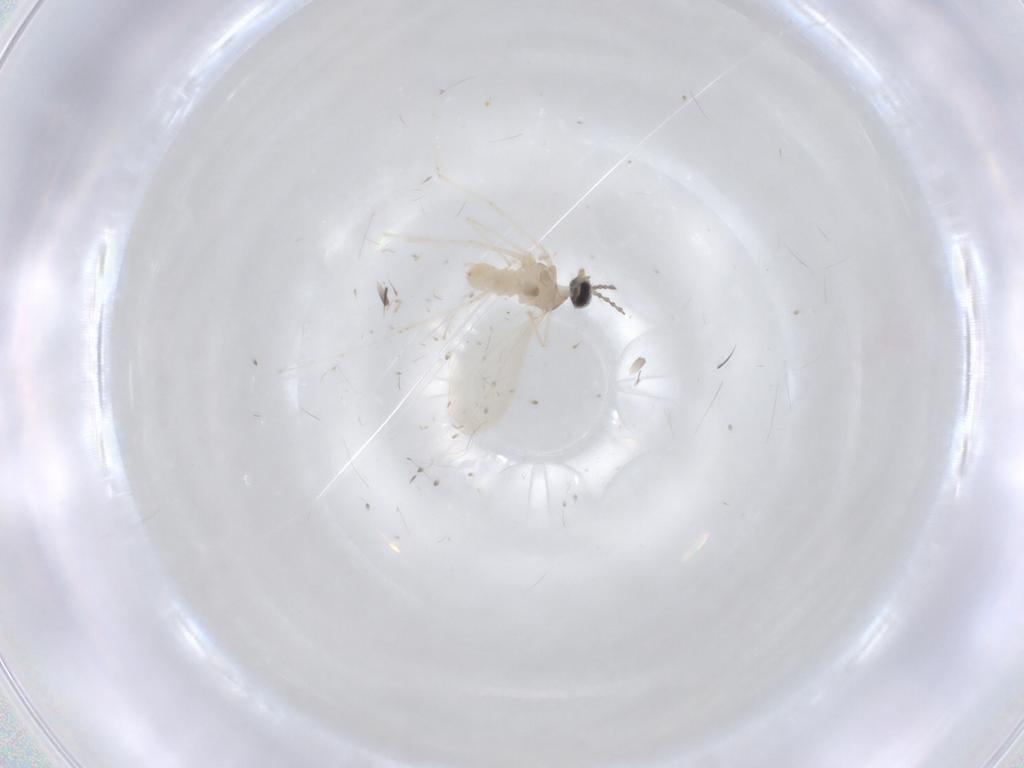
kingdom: Animalia
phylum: Arthropoda
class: Insecta
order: Diptera
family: Cecidomyiidae
